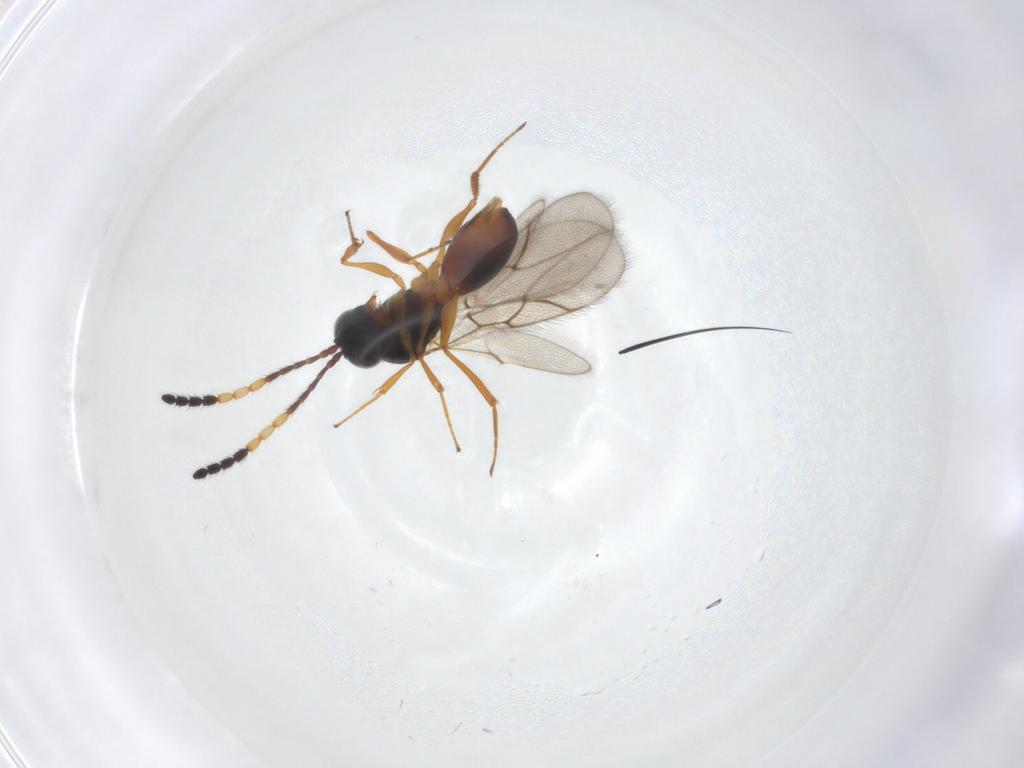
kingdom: Animalia
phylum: Arthropoda
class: Insecta
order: Hymenoptera
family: Figitidae
